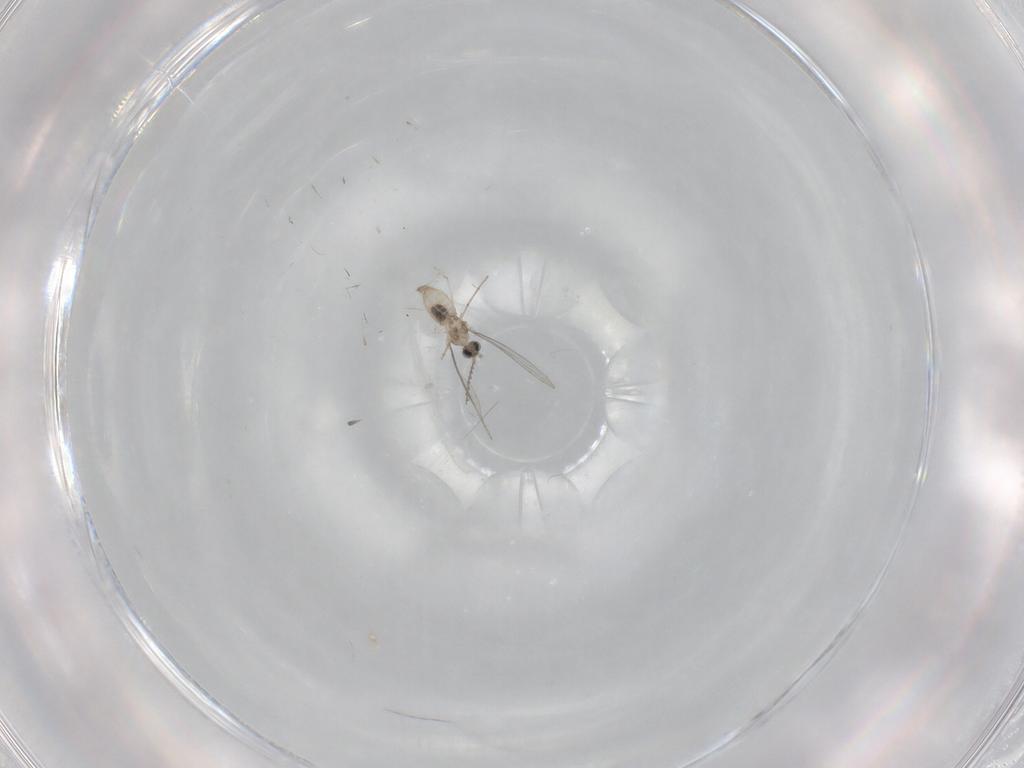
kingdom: Animalia
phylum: Arthropoda
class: Insecta
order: Diptera
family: Cecidomyiidae
